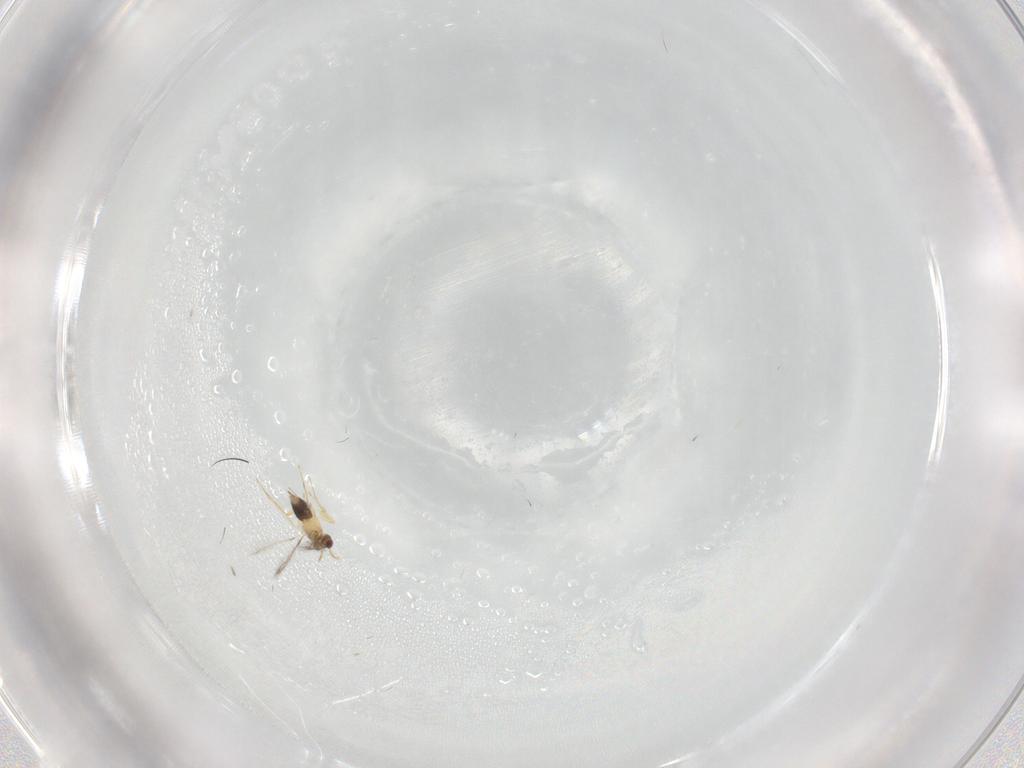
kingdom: Animalia
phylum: Arthropoda
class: Insecta
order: Hymenoptera
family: Mymaridae
